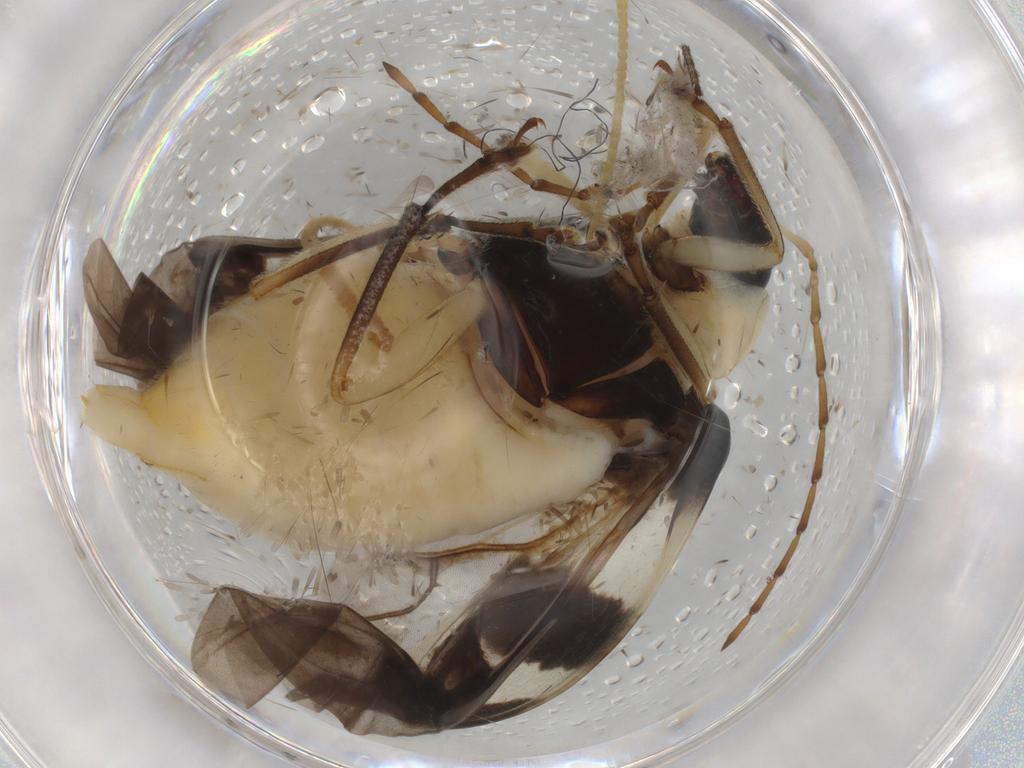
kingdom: Animalia
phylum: Arthropoda
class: Insecta
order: Coleoptera
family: Chrysomelidae
